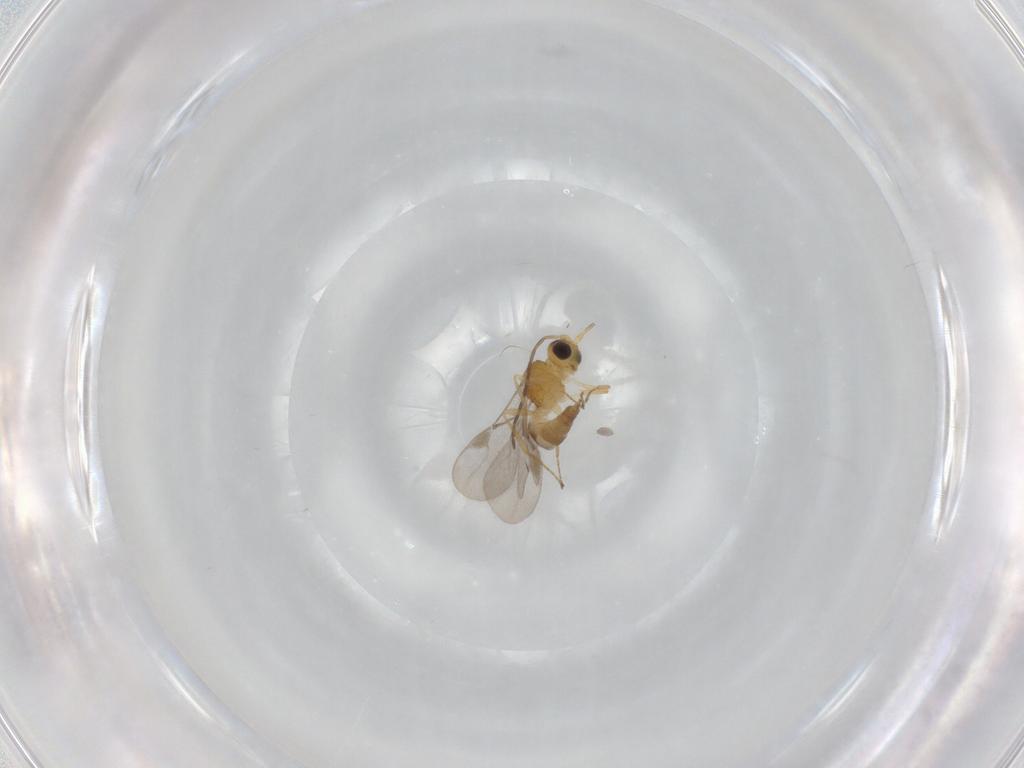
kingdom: Animalia
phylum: Arthropoda
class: Insecta
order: Hymenoptera
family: Braconidae
